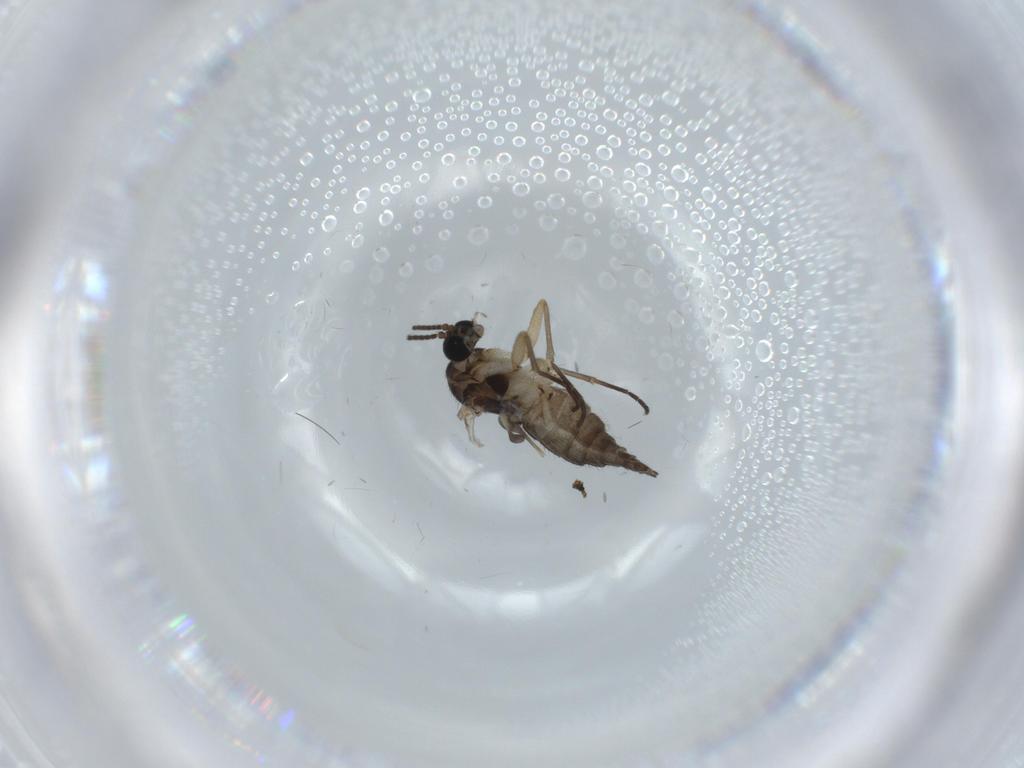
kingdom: Animalia
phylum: Arthropoda
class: Insecta
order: Diptera
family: Sciaridae
